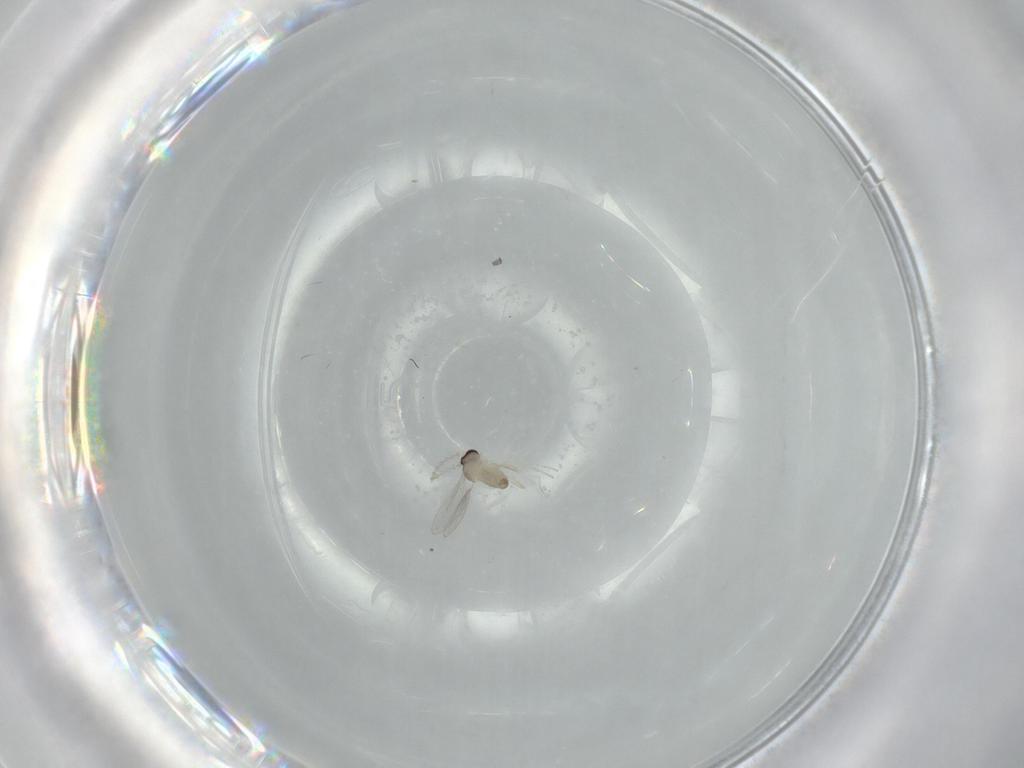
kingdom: Animalia
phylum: Arthropoda
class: Insecta
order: Diptera
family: Cecidomyiidae
